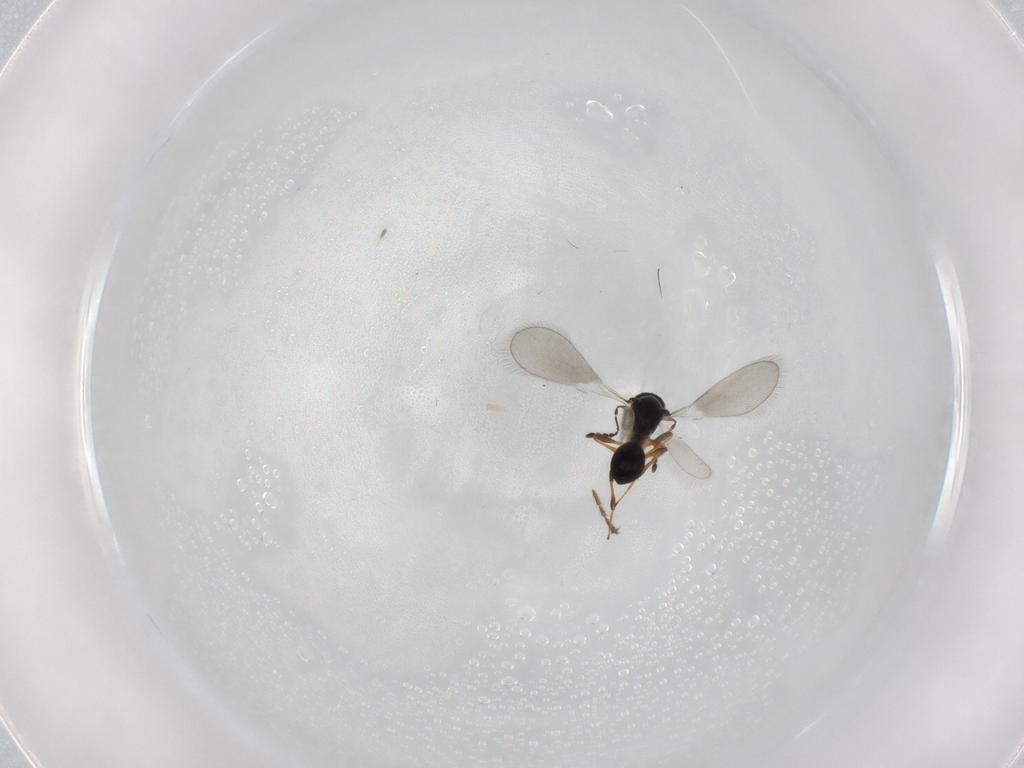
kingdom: Animalia
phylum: Arthropoda
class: Insecta
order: Hymenoptera
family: Platygastridae
